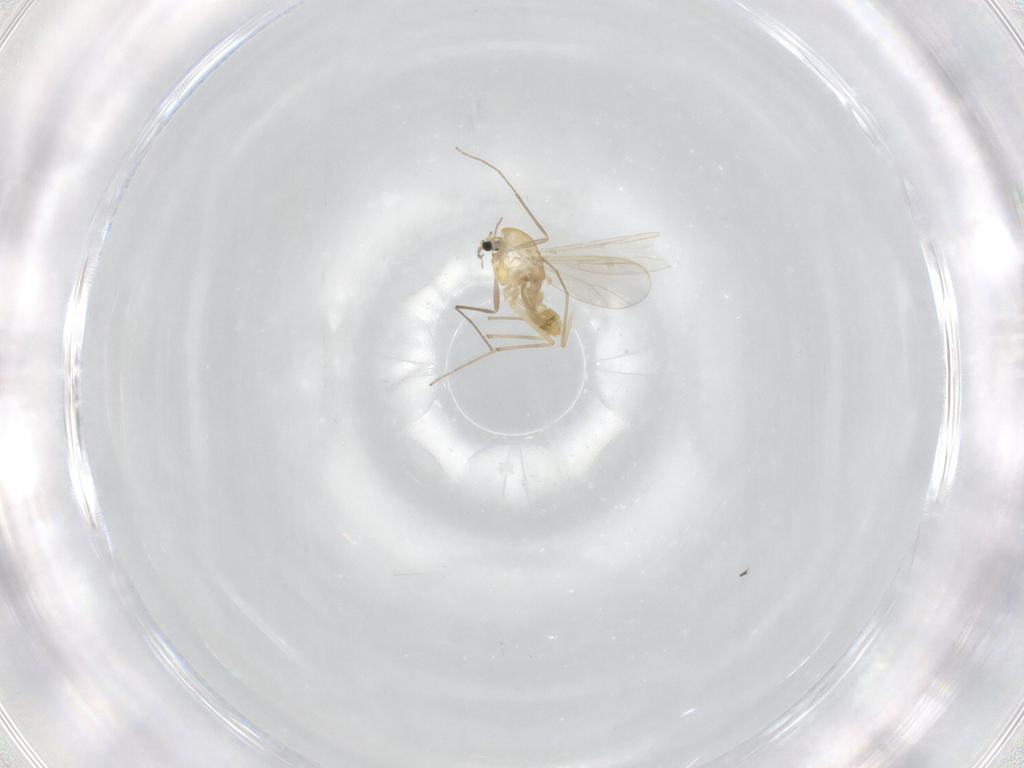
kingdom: Animalia
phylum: Arthropoda
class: Insecta
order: Diptera
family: Chironomidae
